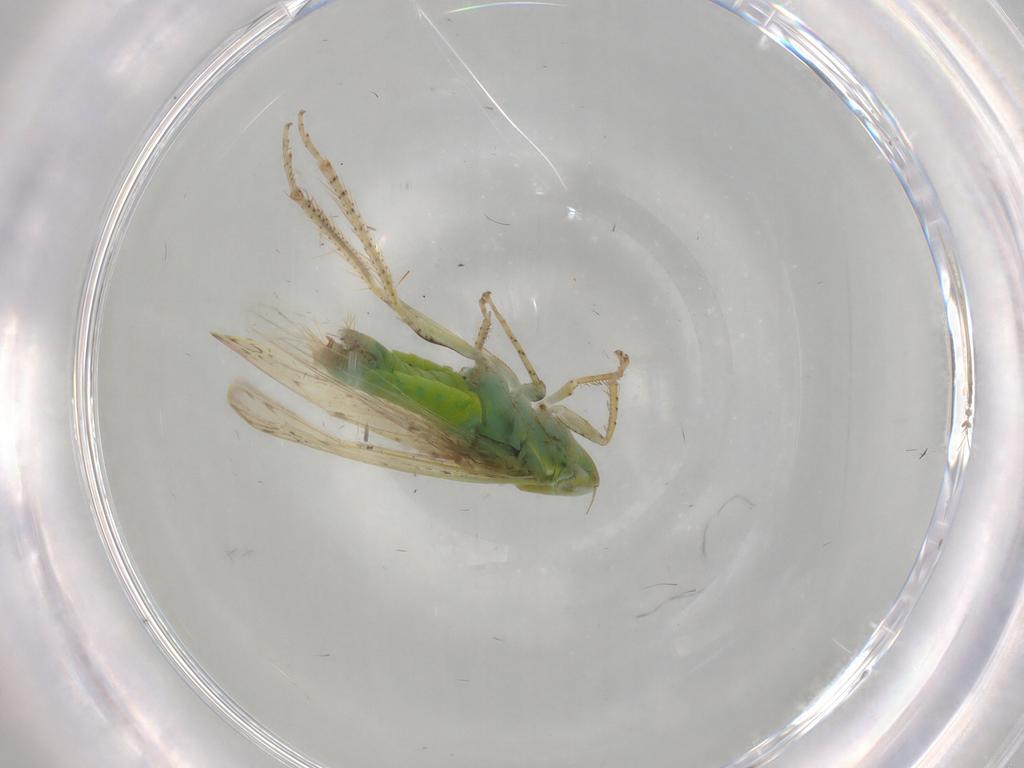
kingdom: Animalia
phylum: Arthropoda
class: Insecta
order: Hemiptera
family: Cicadellidae
